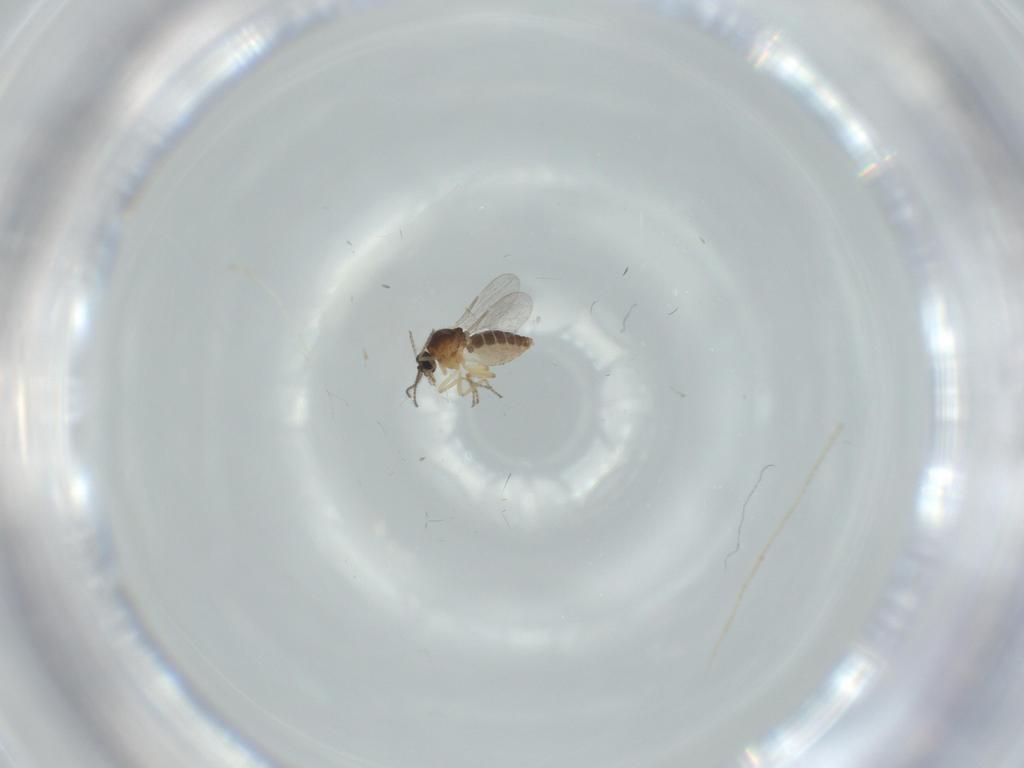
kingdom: Animalia
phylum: Arthropoda
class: Insecta
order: Diptera
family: Ceratopogonidae
